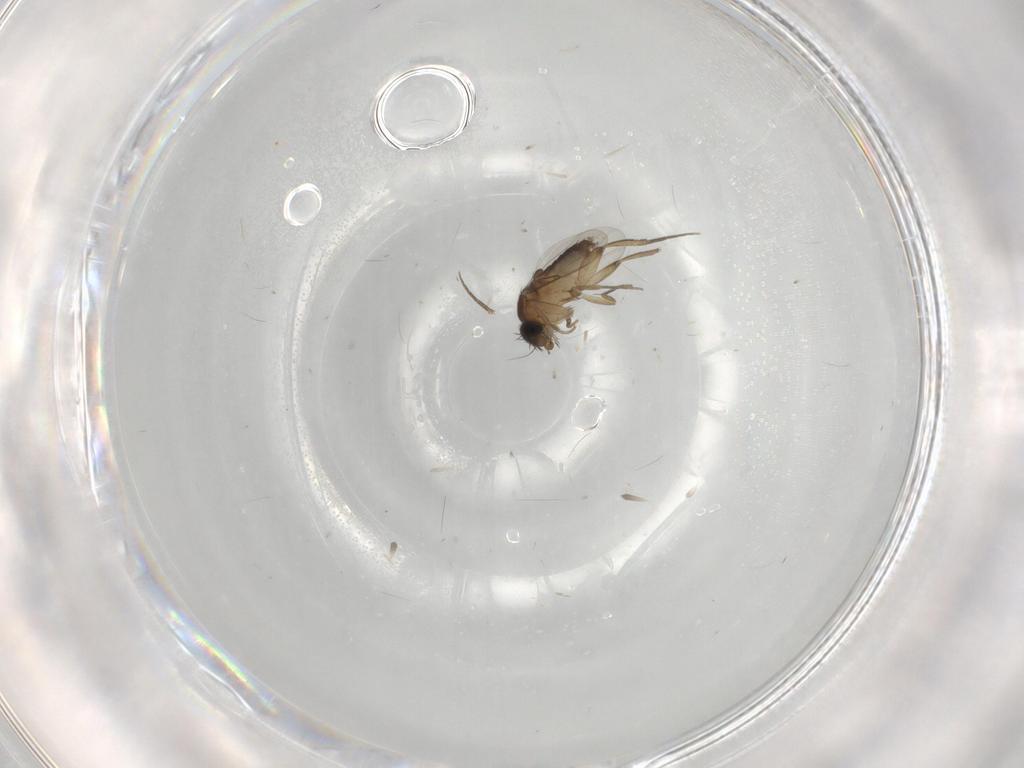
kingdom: Animalia
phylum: Arthropoda
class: Insecta
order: Diptera
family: Phoridae
